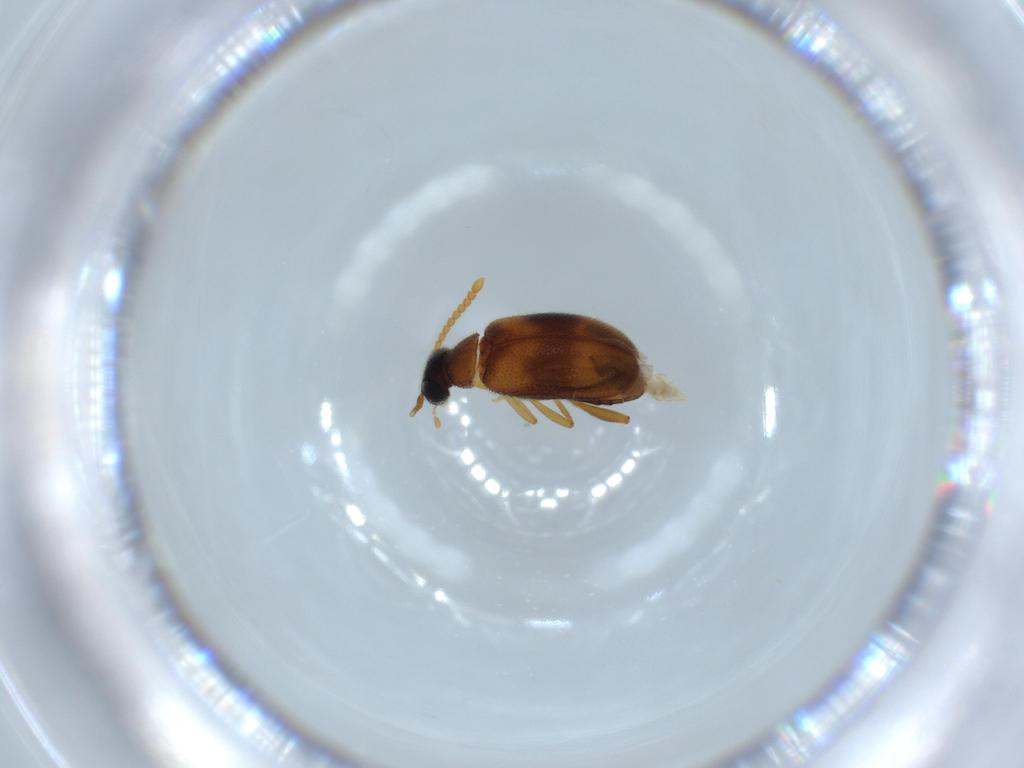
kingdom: Animalia
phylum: Arthropoda
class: Insecta
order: Coleoptera
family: Aderidae
